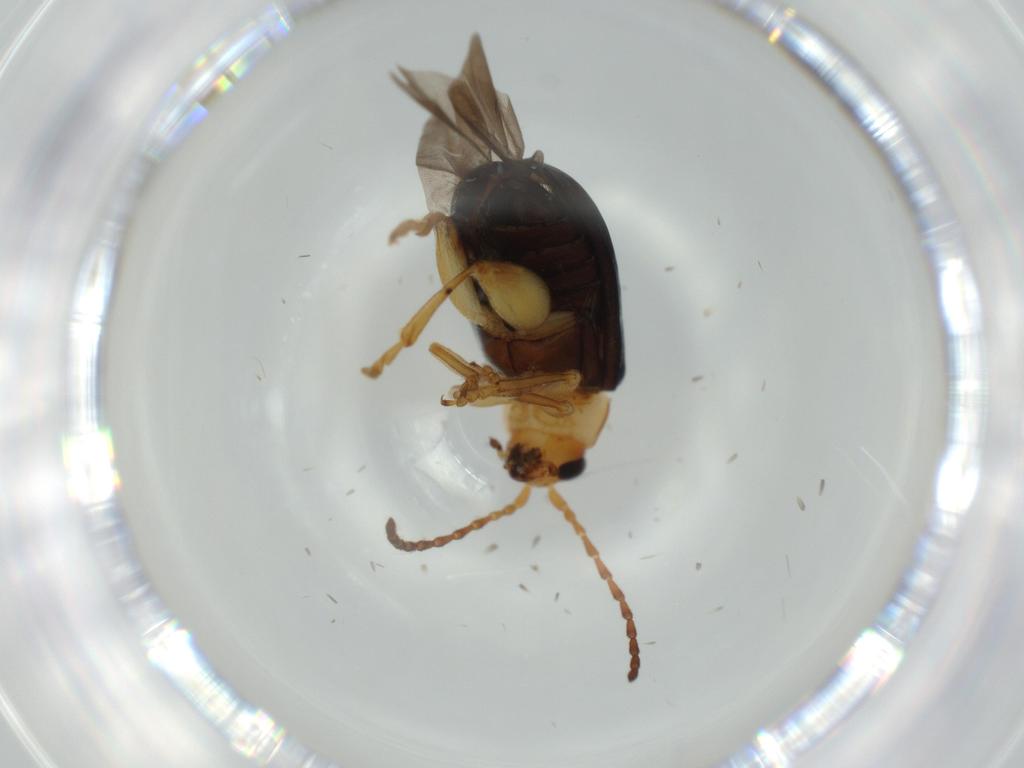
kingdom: Animalia
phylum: Arthropoda
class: Insecta
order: Coleoptera
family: Chrysomelidae
